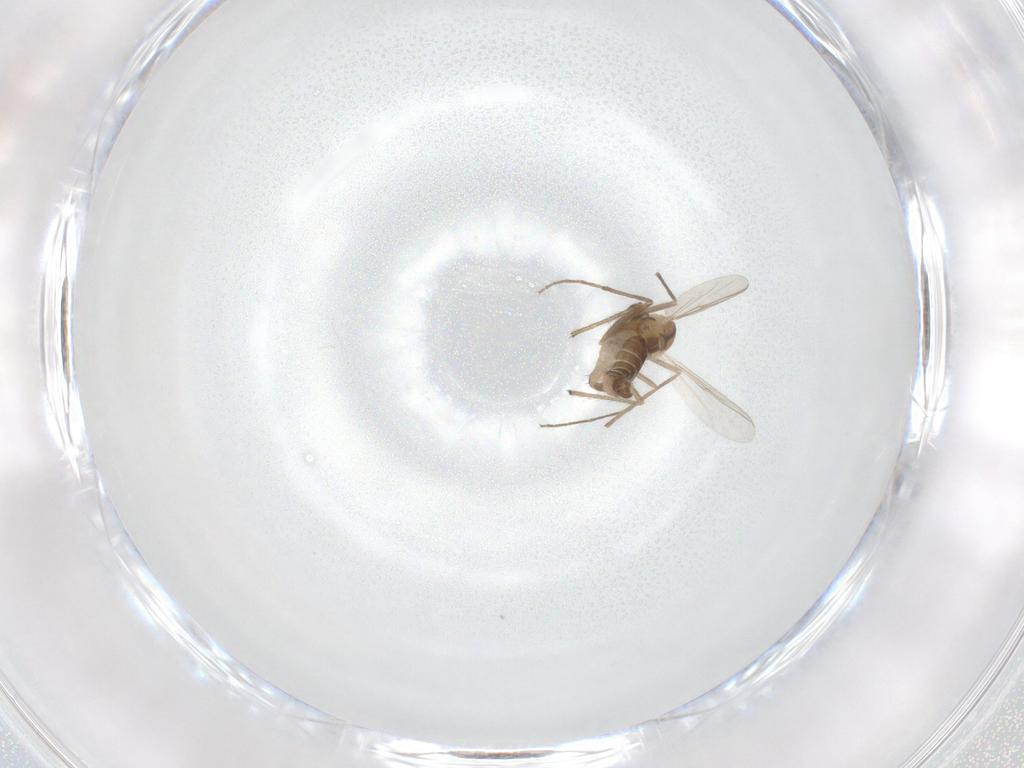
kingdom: Animalia
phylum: Arthropoda
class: Insecta
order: Diptera
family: Chironomidae
